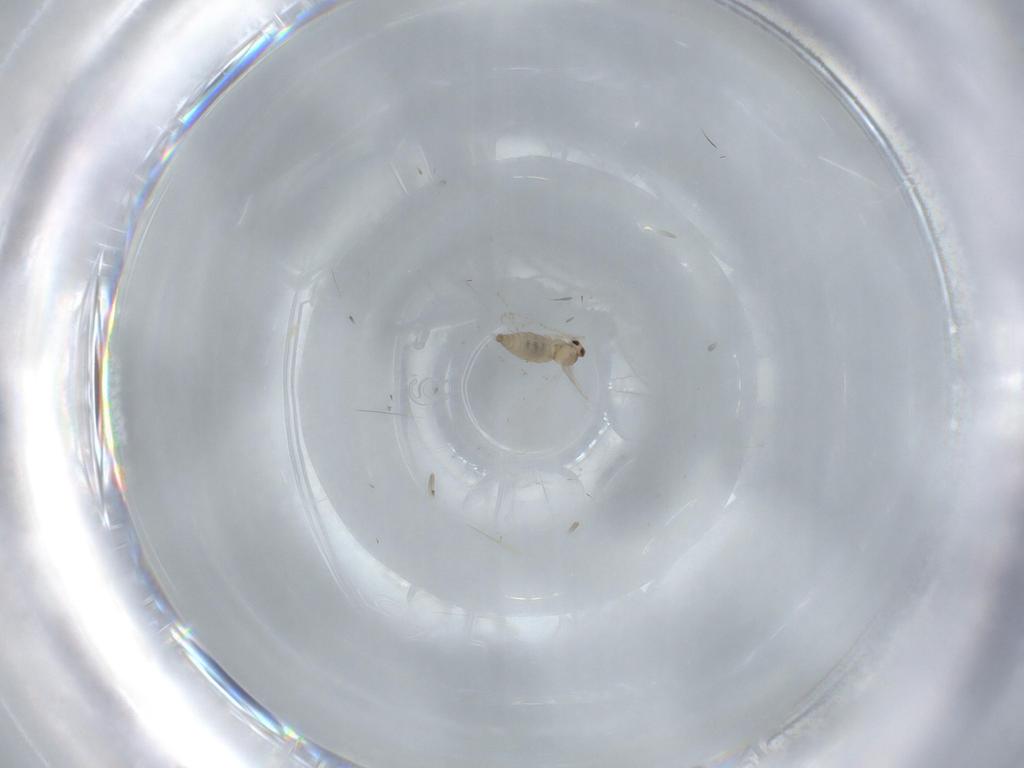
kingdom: Animalia
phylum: Arthropoda
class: Insecta
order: Diptera
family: Cecidomyiidae
